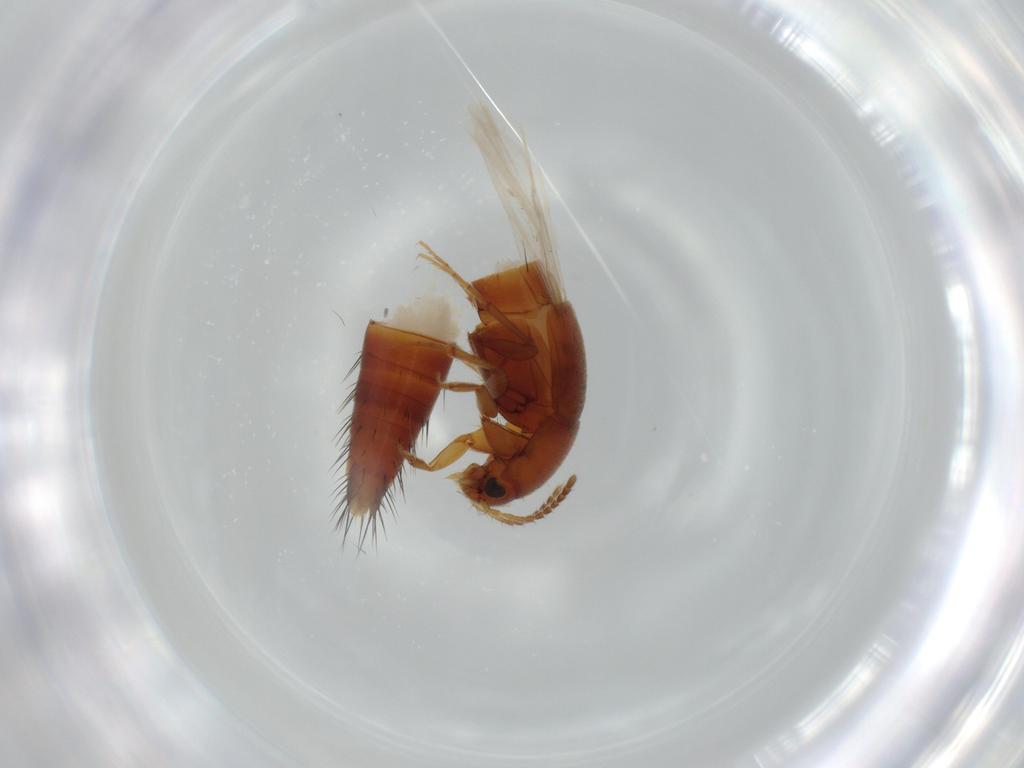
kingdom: Animalia
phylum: Arthropoda
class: Insecta
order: Coleoptera
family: Staphylinidae
